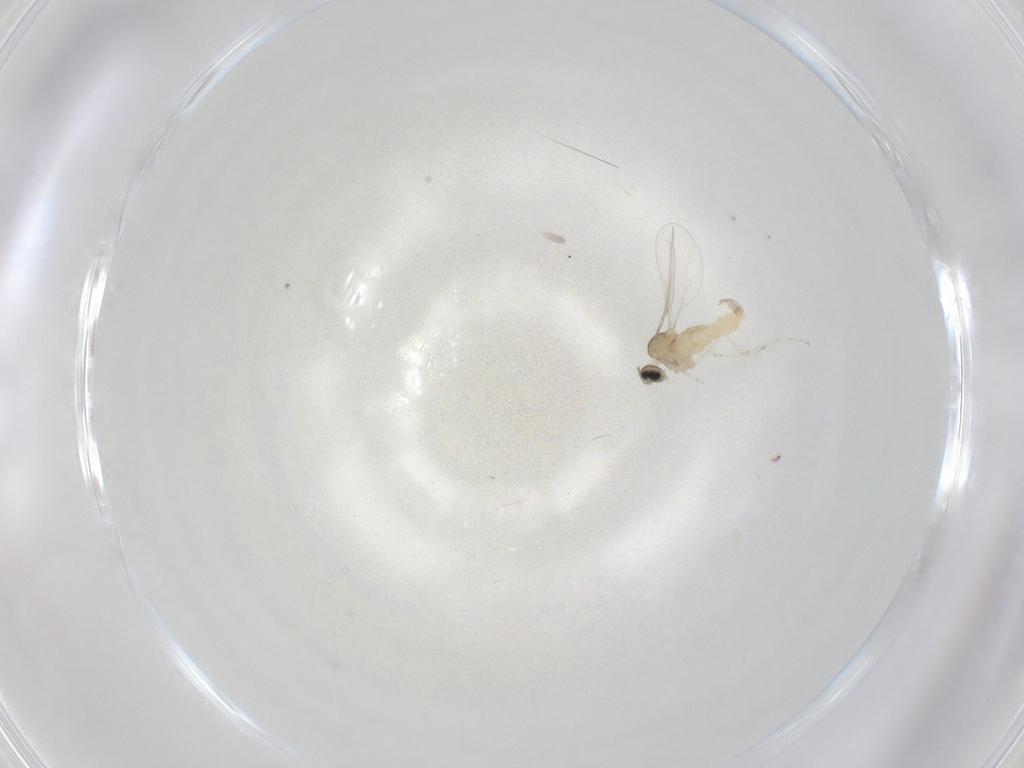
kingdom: Animalia
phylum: Arthropoda
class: Insecta
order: Diptera
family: Cecidomyiidae
